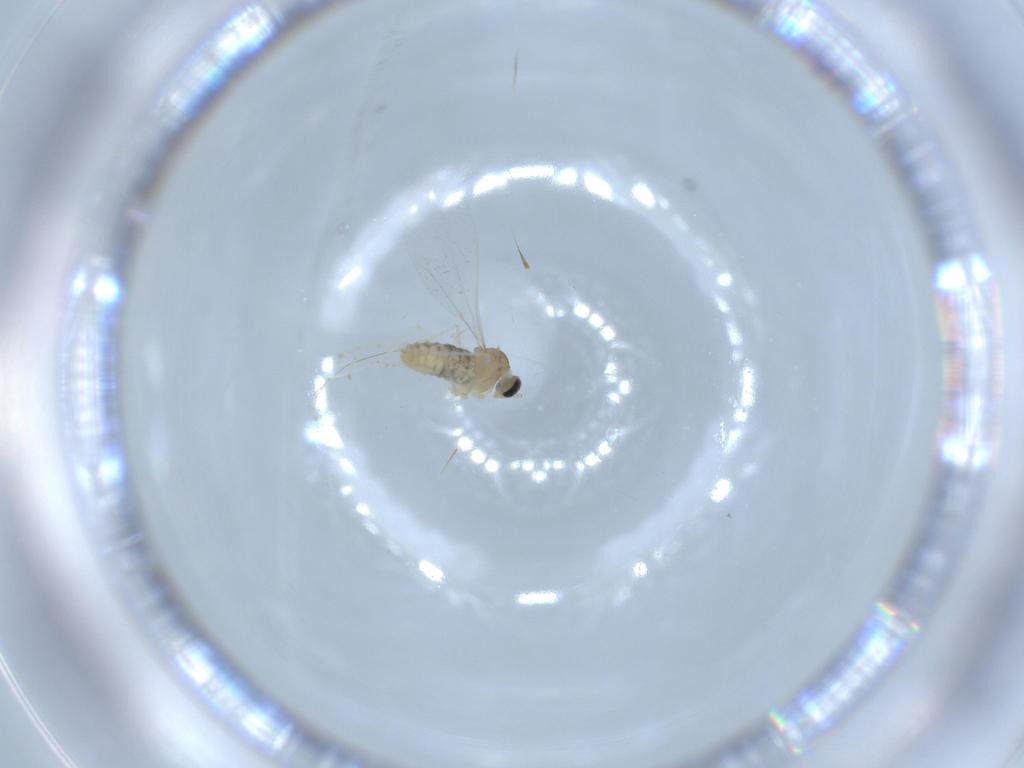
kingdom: Animalia
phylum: Arthropoda
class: Insecta
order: Diptera
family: Cecidomyiidae
